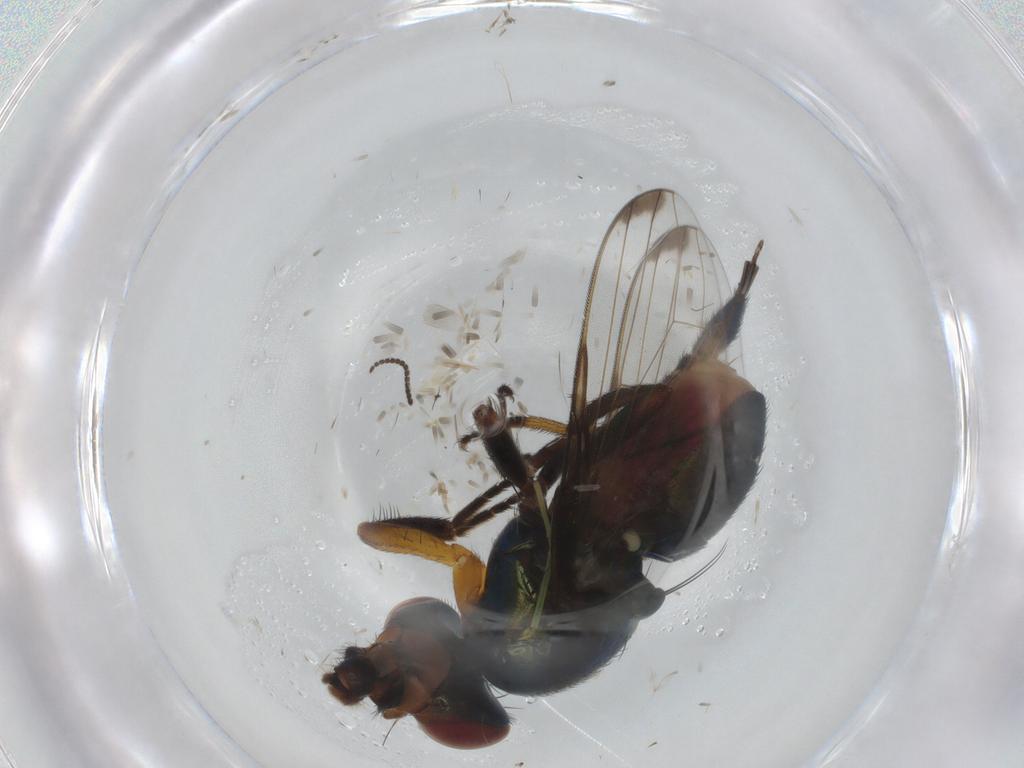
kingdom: Animalia
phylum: Arthropoda
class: Insecta
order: Diptera
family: Ulidiidae
